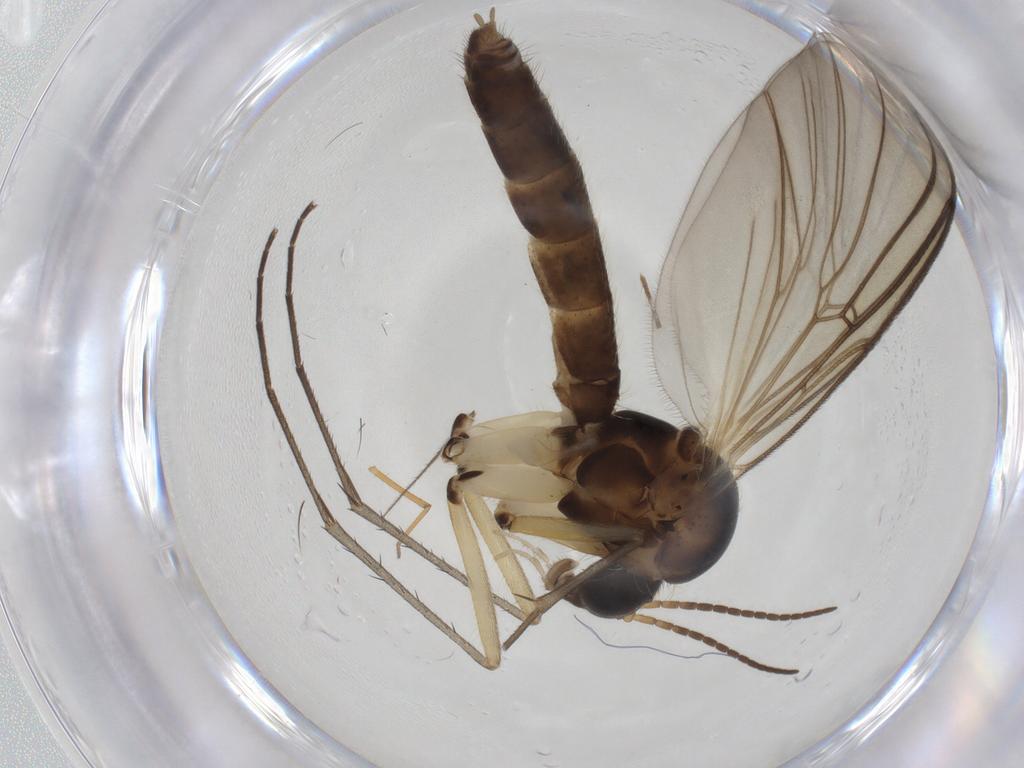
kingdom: Animalia
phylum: Arthropoda
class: Insecta
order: Diptera
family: Mycetophilidae
